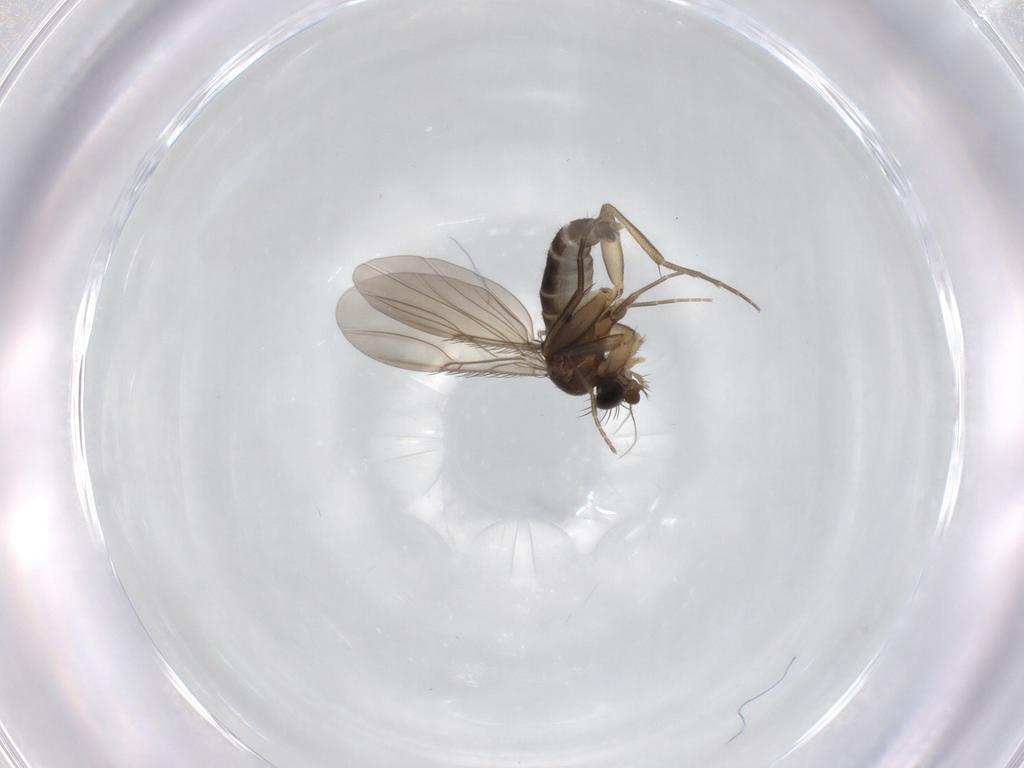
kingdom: Animalia
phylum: Arthropoda
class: Insecta
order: Diptera
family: Phoridae
